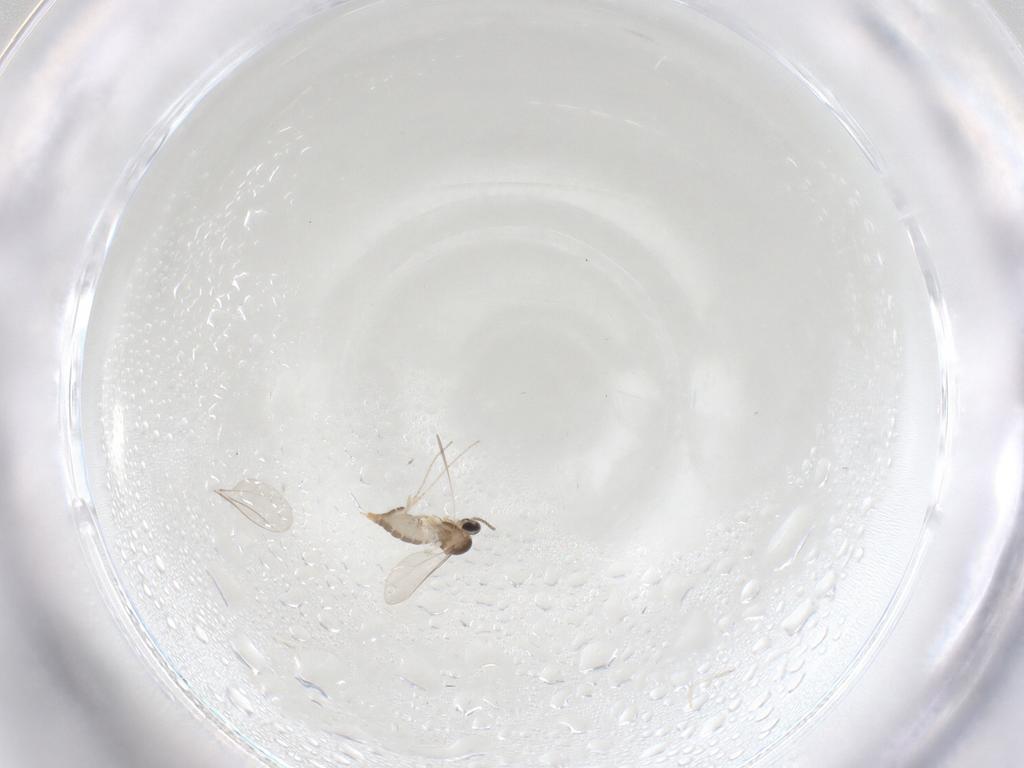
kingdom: Animalia
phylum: Arthropoda
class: Insecta
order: Diptera
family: Cecidomyiidae
